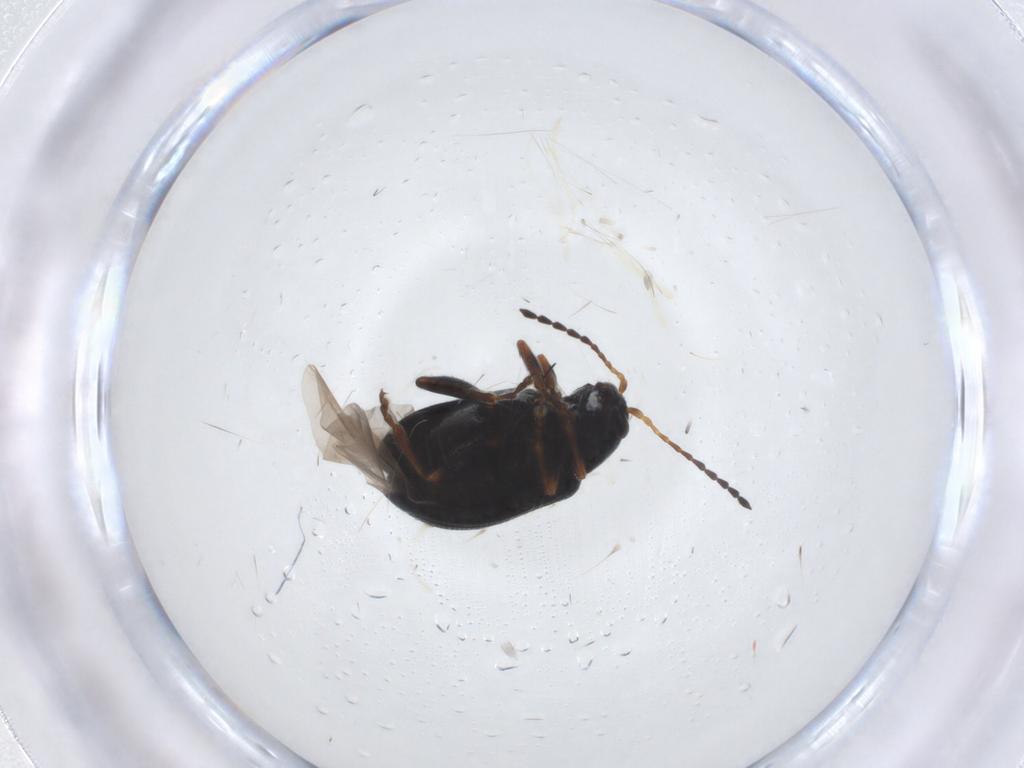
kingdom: Animalia
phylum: Arthropoda
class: Insecta
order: Coleoptera
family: Chrysomelidae
